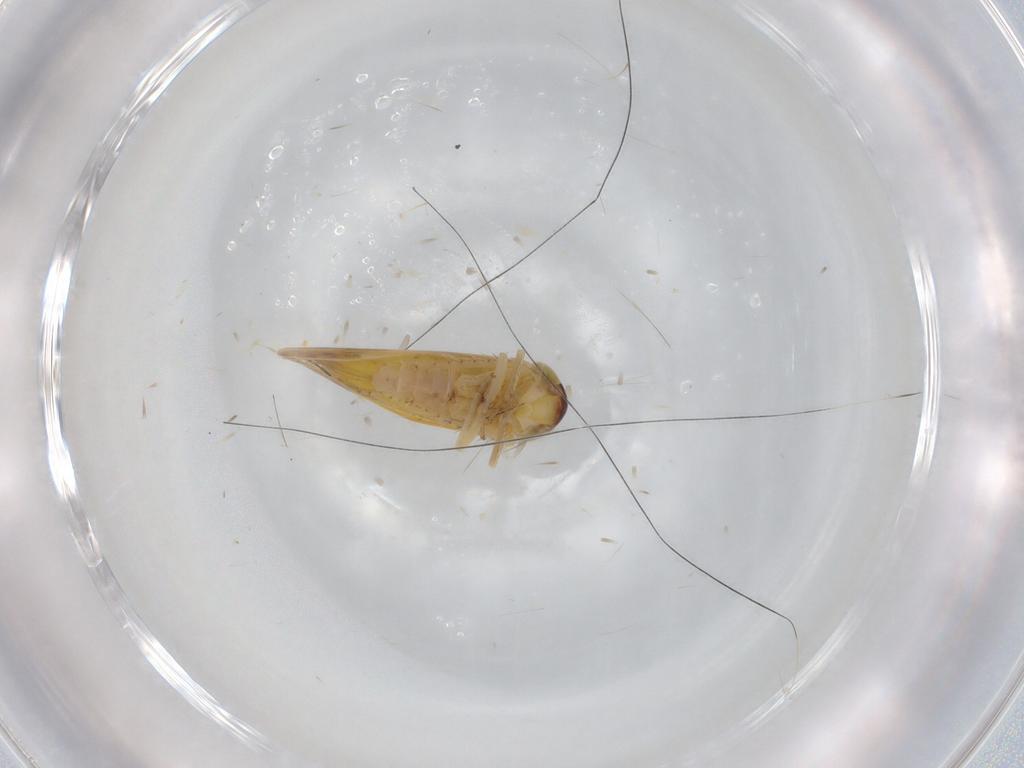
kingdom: Animalia
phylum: Arthropoda
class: Insecta
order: Hemiptera
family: Cicadellidae
